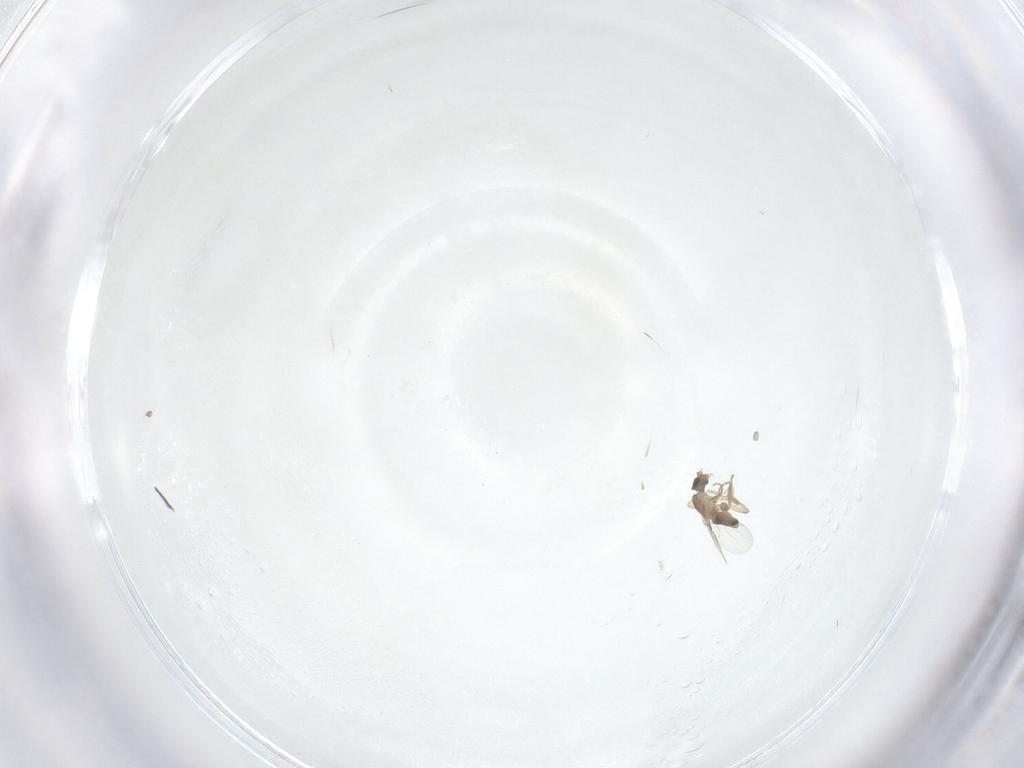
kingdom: Animalia
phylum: Arthropoda
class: Insecta
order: Diptera
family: Phoridae
